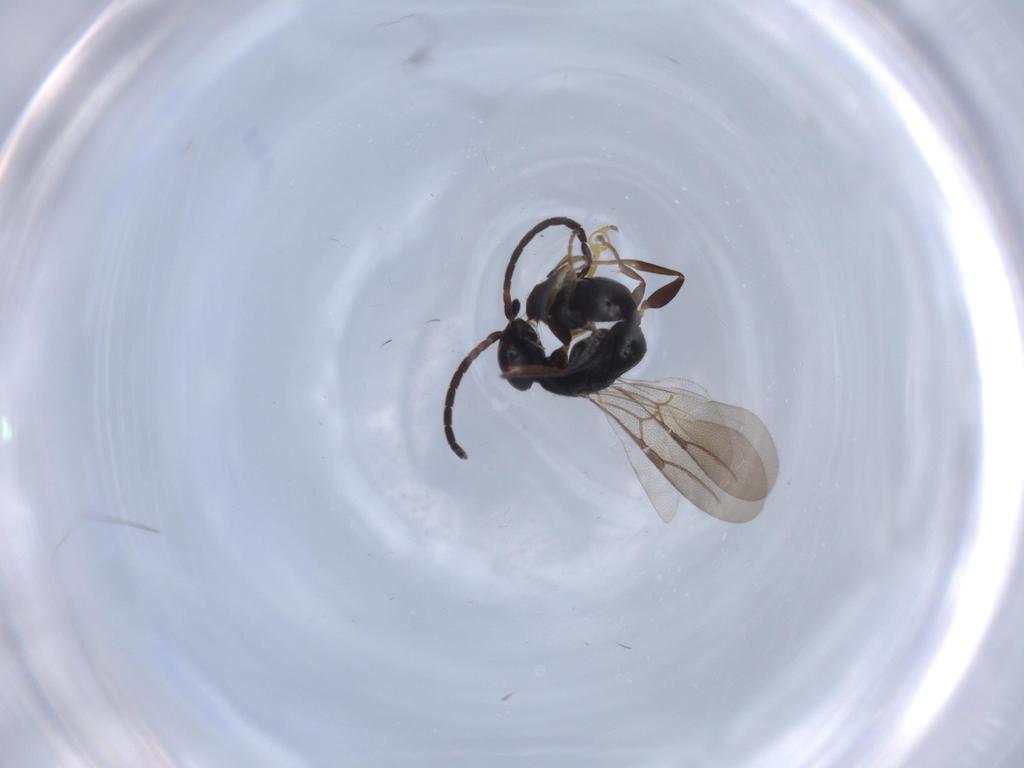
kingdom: Animalia
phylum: Arthropoda
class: Insecta
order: Hymenoptera
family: Bethylidae
